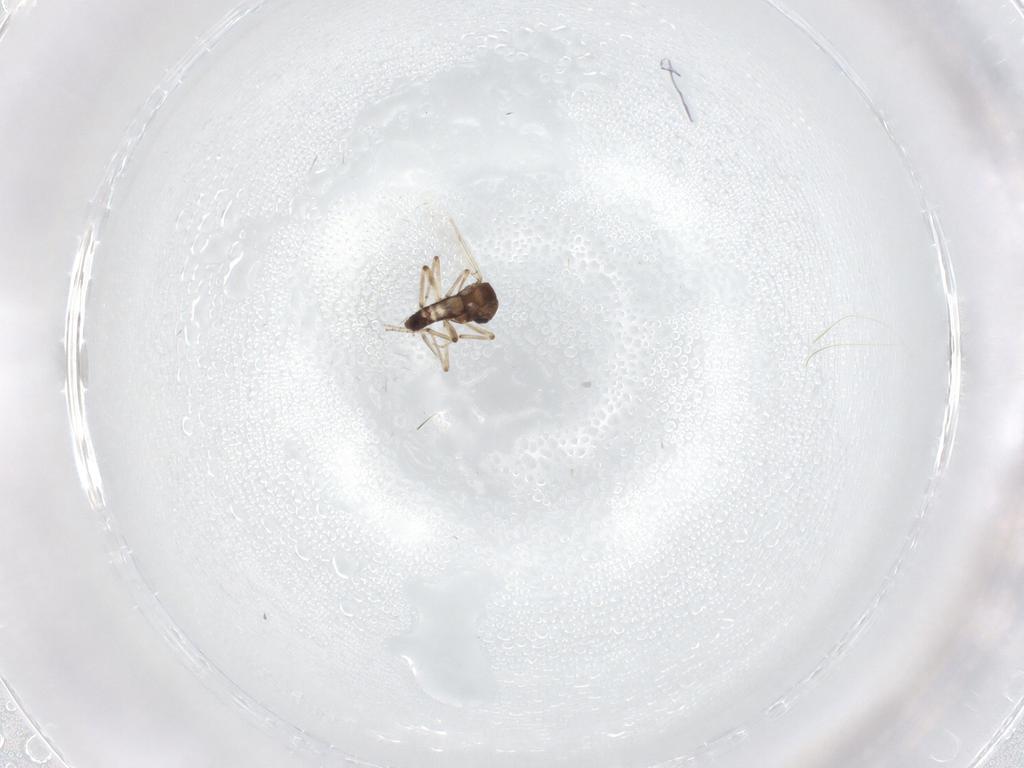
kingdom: Animalia
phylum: Arthropoda
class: Insecta
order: Diptera
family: Ceratopogonidae
